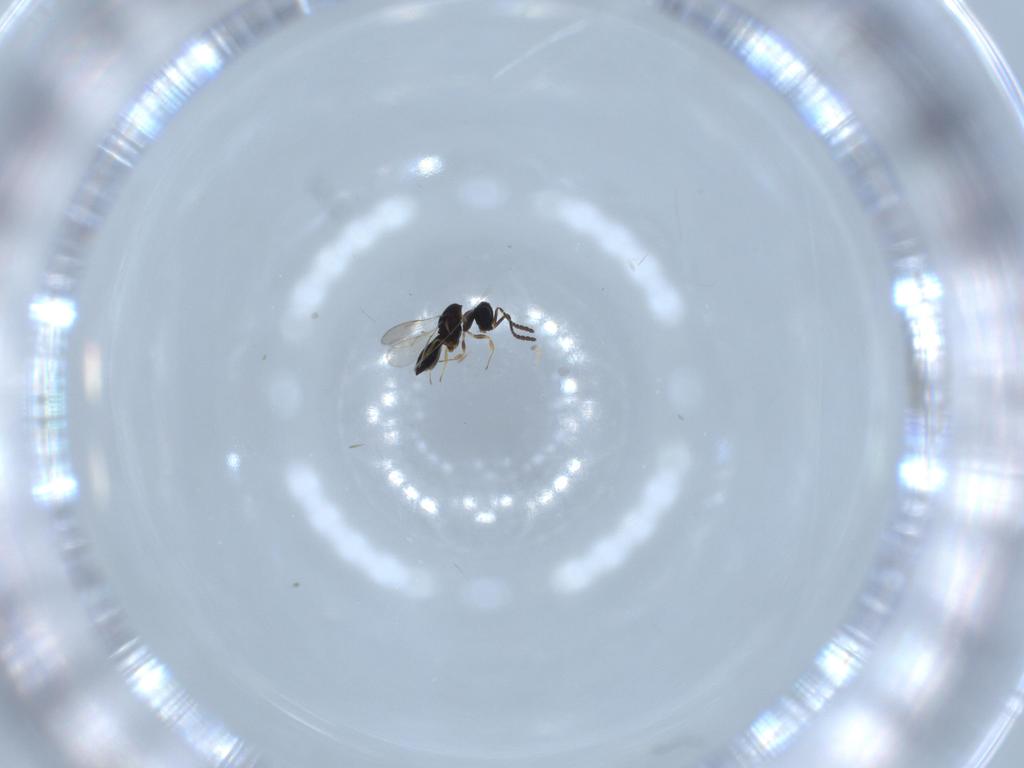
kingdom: Animalia
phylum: Arthropoda
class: Insecta
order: Hymenoptera
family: Scelionidae
